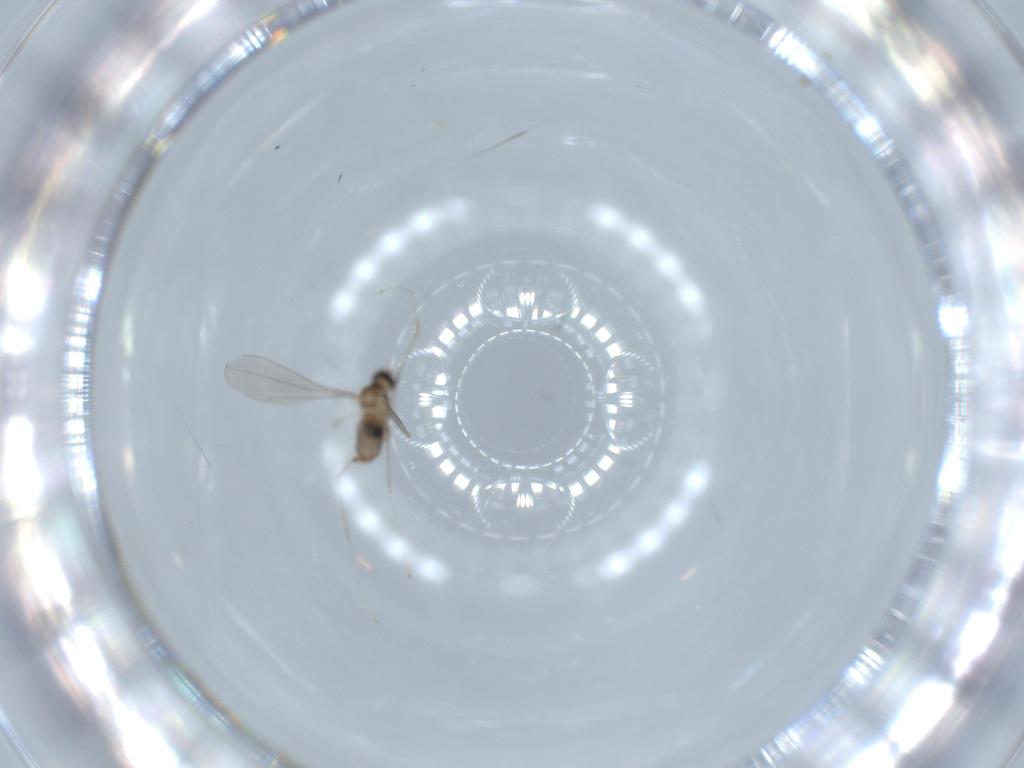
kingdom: Animalia
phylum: Arthropoda
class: Insecta
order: Diptera
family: Cecidomyiidae
